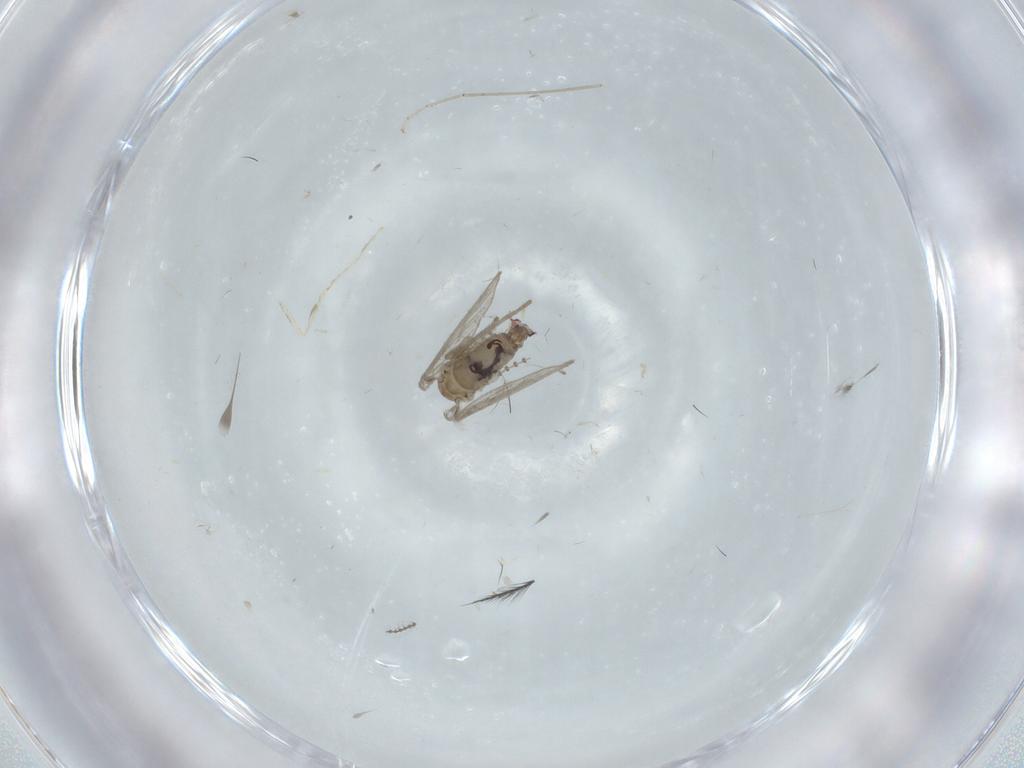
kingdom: Animalia
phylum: Arthropoda
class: Insecta
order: Diptera
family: Psychodidae
